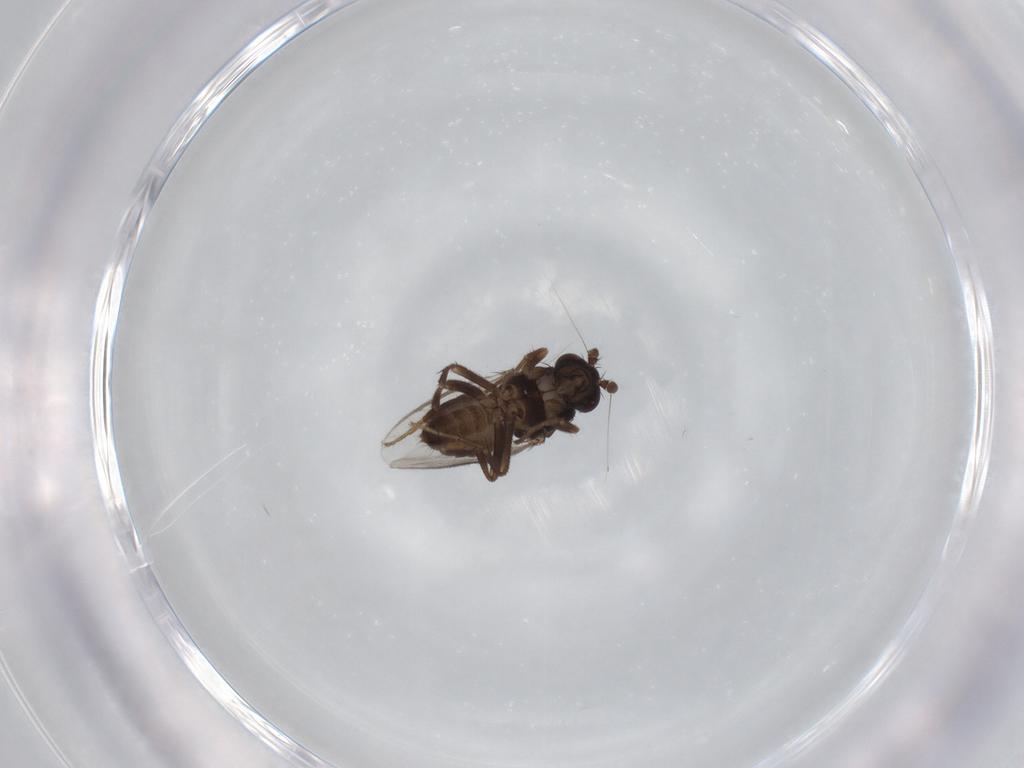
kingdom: Animalia
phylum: Arthropoda
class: Insecta
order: Diptera
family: Sphaeroceridae
